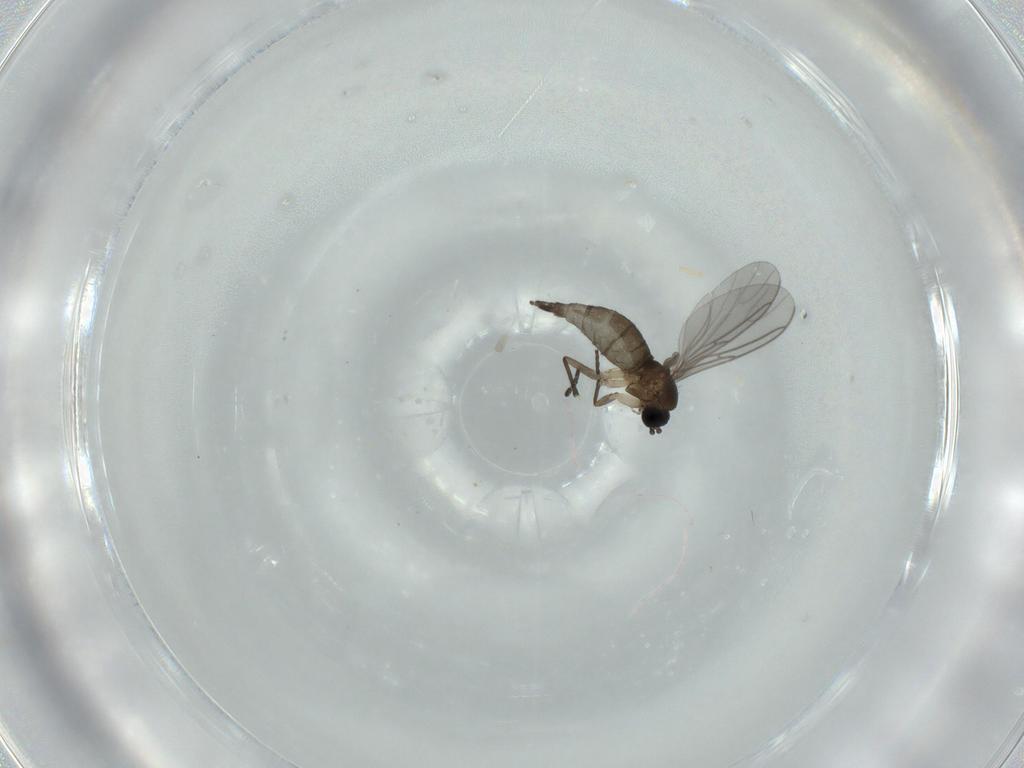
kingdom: Animalia
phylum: Arthropoda
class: Insecta
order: Diptera
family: Sciaridae
